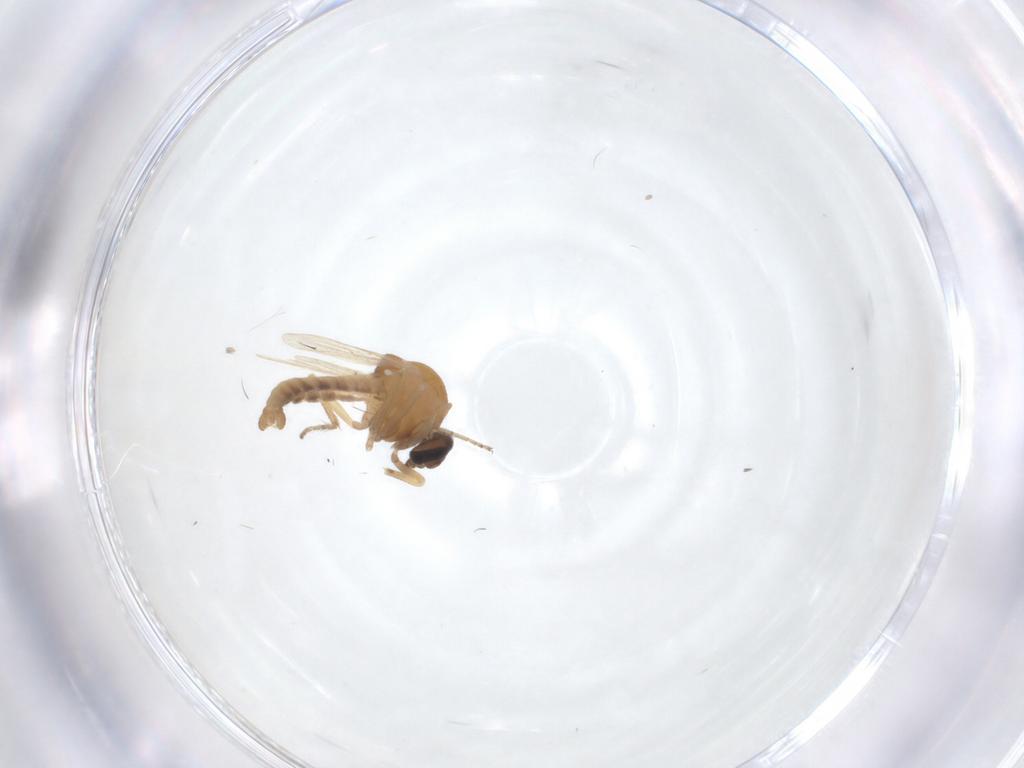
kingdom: Animalia
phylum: Arthropoda
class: Insecta
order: Diptera
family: Ceratopogonidae
